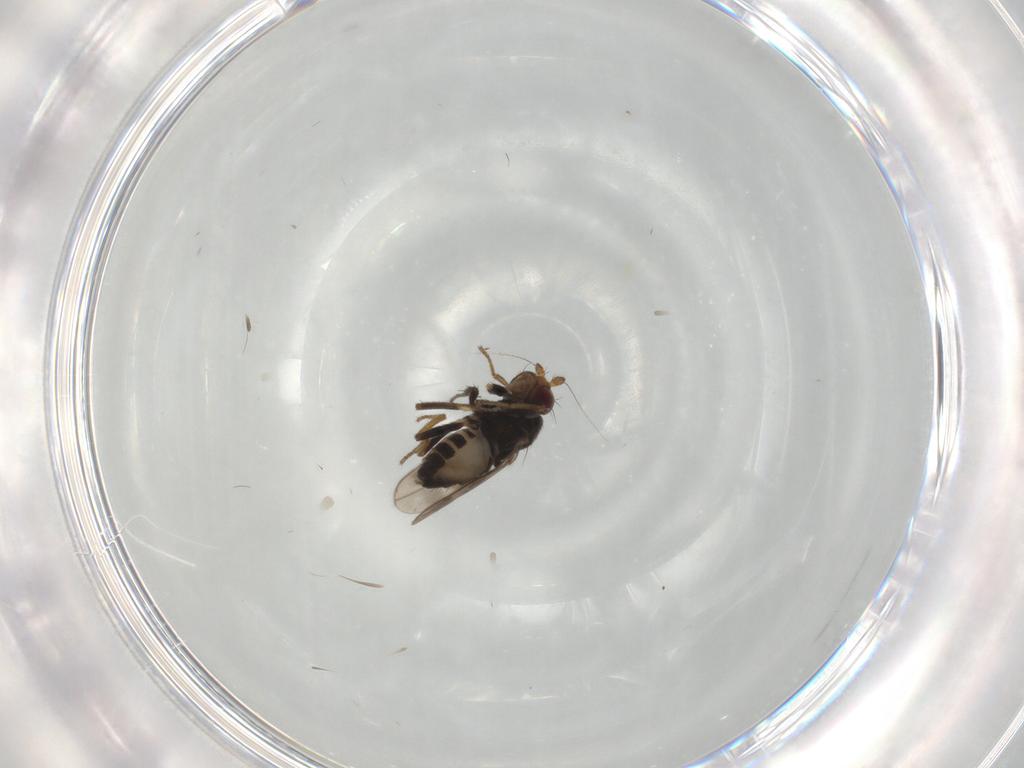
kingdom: Animalia
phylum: Arthropoda
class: Insecta
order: Diptera
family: Sphaeroceridae
